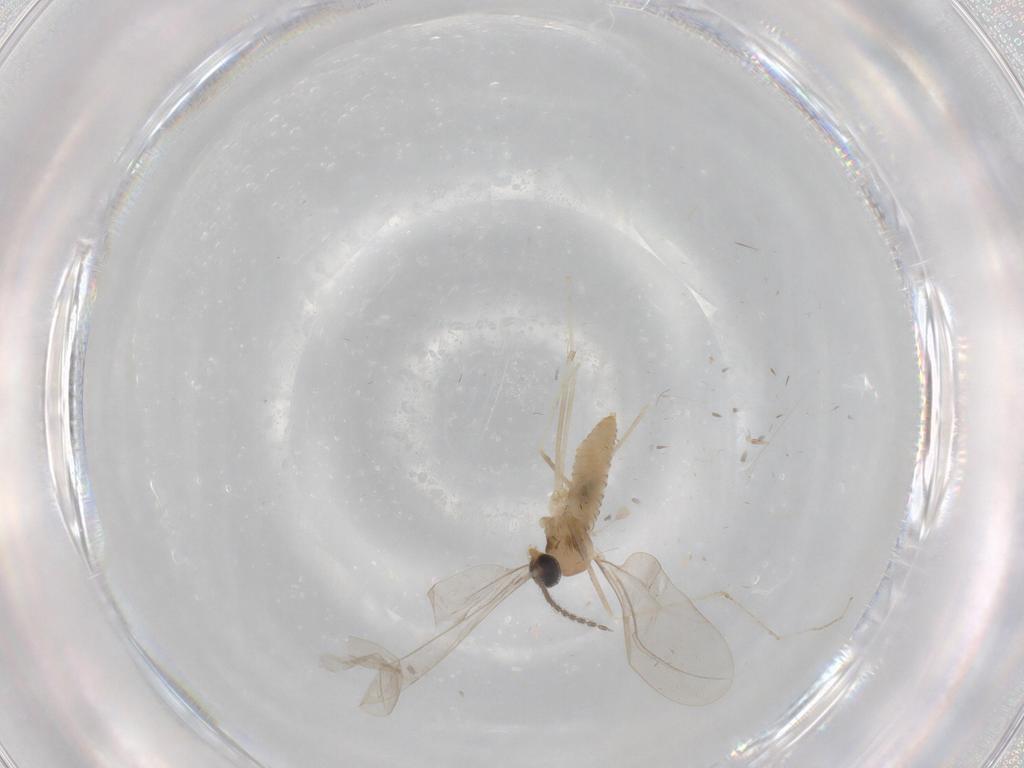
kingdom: Animalia
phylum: Arthropoda
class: Insecta
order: Diptera
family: Cecidomyiidae
